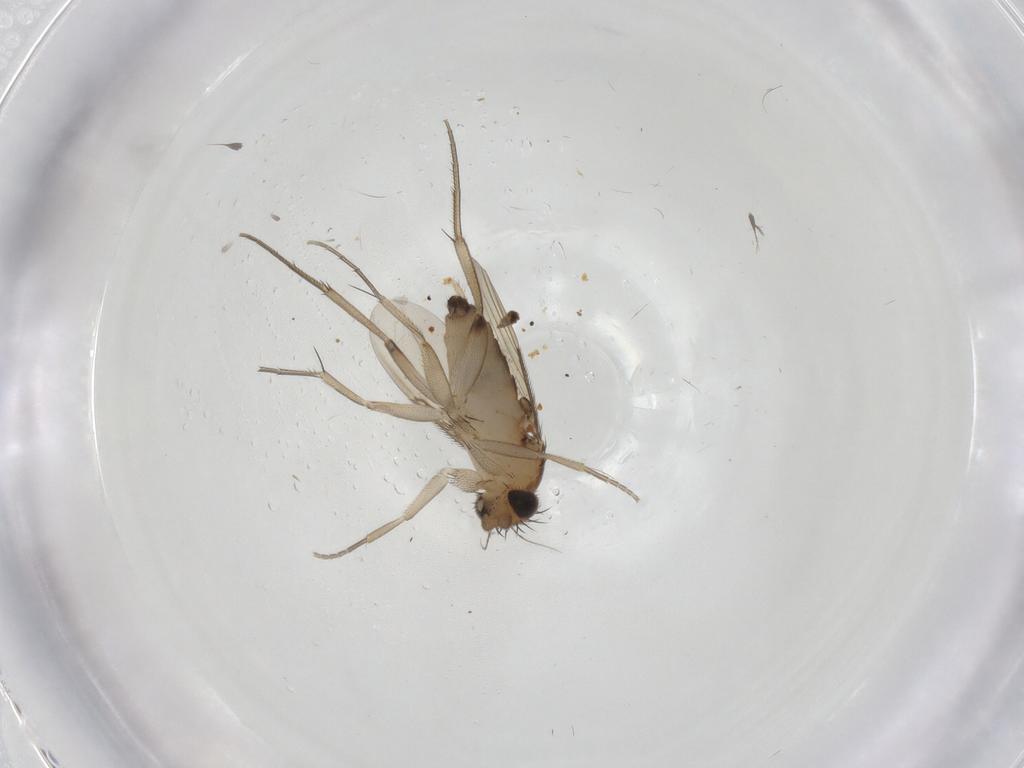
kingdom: Animalia
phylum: Arthropoda
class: Insecta
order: Diptera
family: Phoridae
